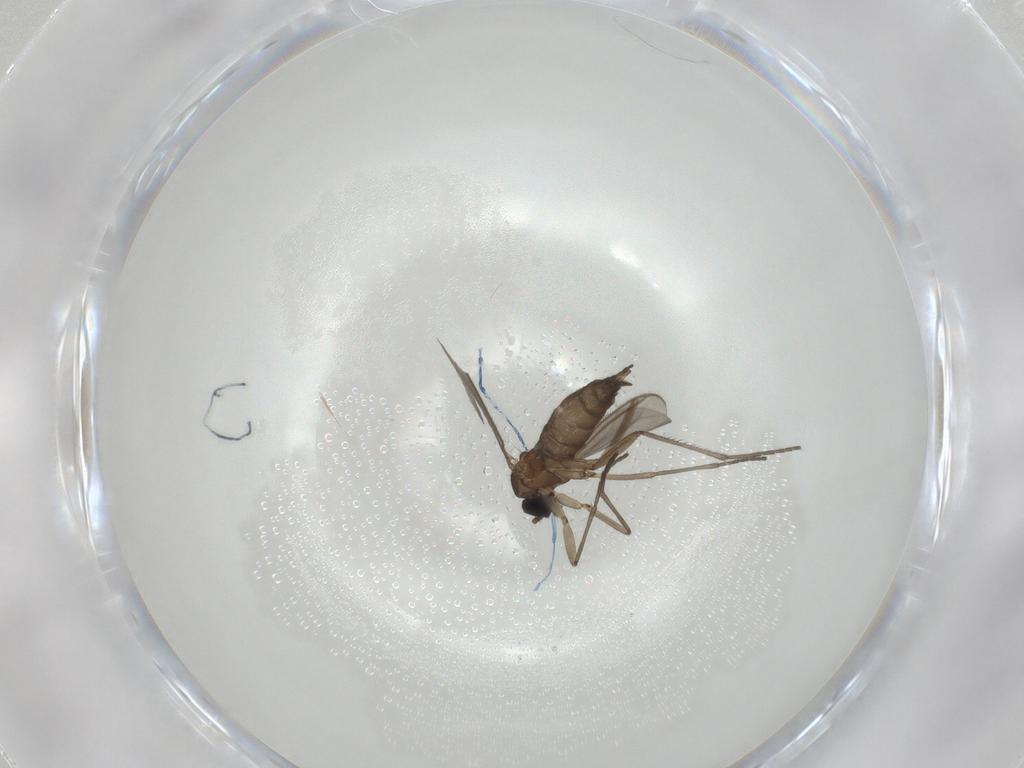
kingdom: Animalia
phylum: Arthropoda
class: Insecta
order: Diptera
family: Sciaridae
